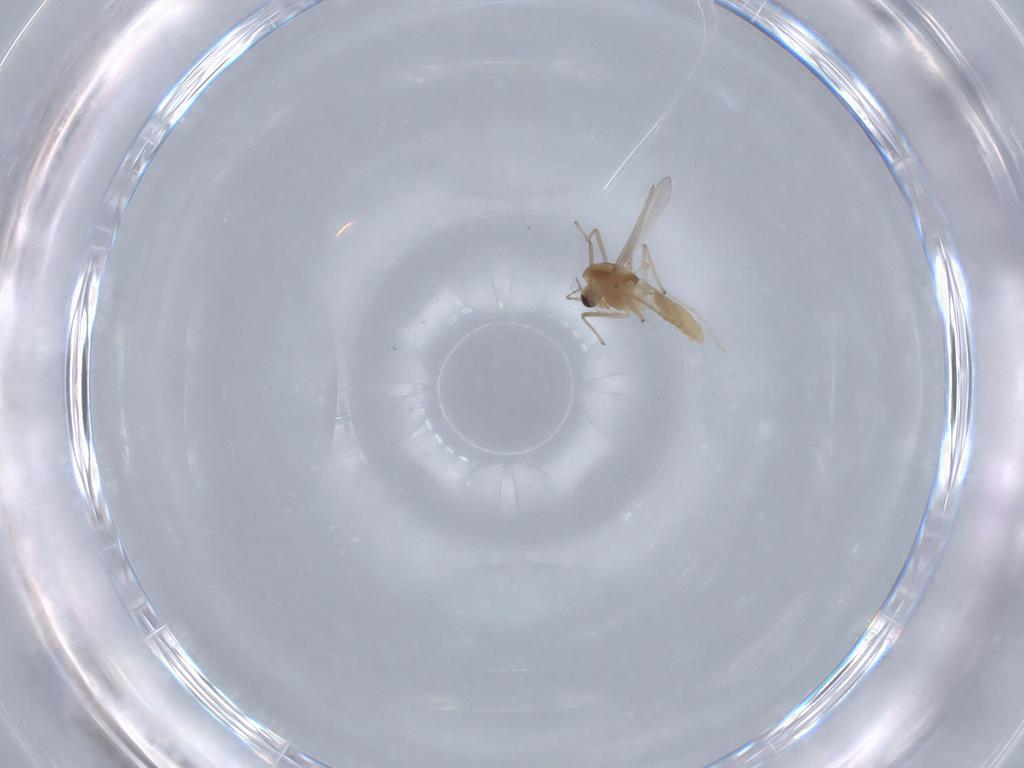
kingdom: Animalia
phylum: Arthropoda
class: Insecta
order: Diptera
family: Chironomidae
